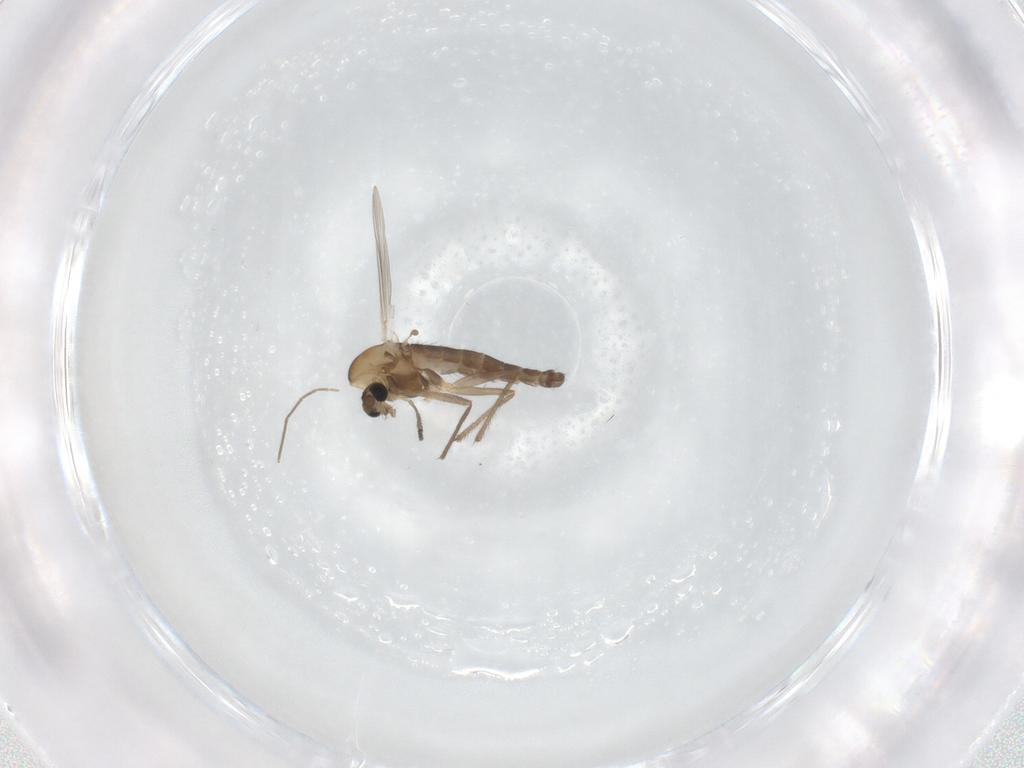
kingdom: Animalia
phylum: Arthropoda
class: Insecta
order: Diptera
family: Chironomidae
